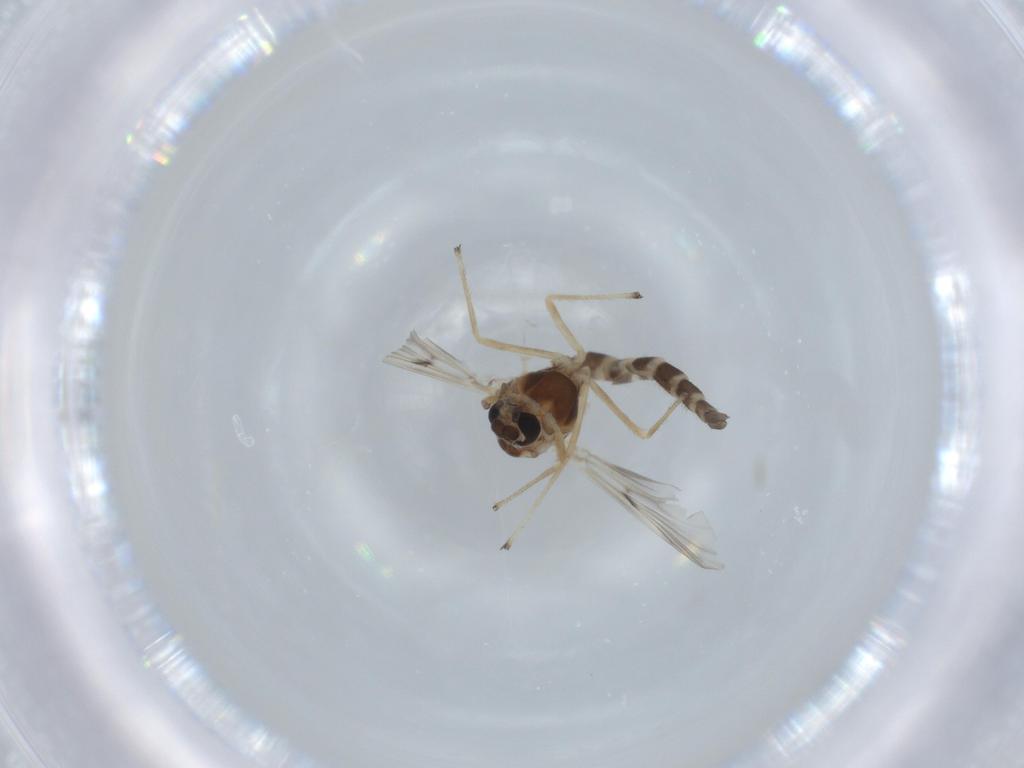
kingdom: Animalia
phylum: Arthropoda
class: Insecta
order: Diptera
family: Chironomidae
